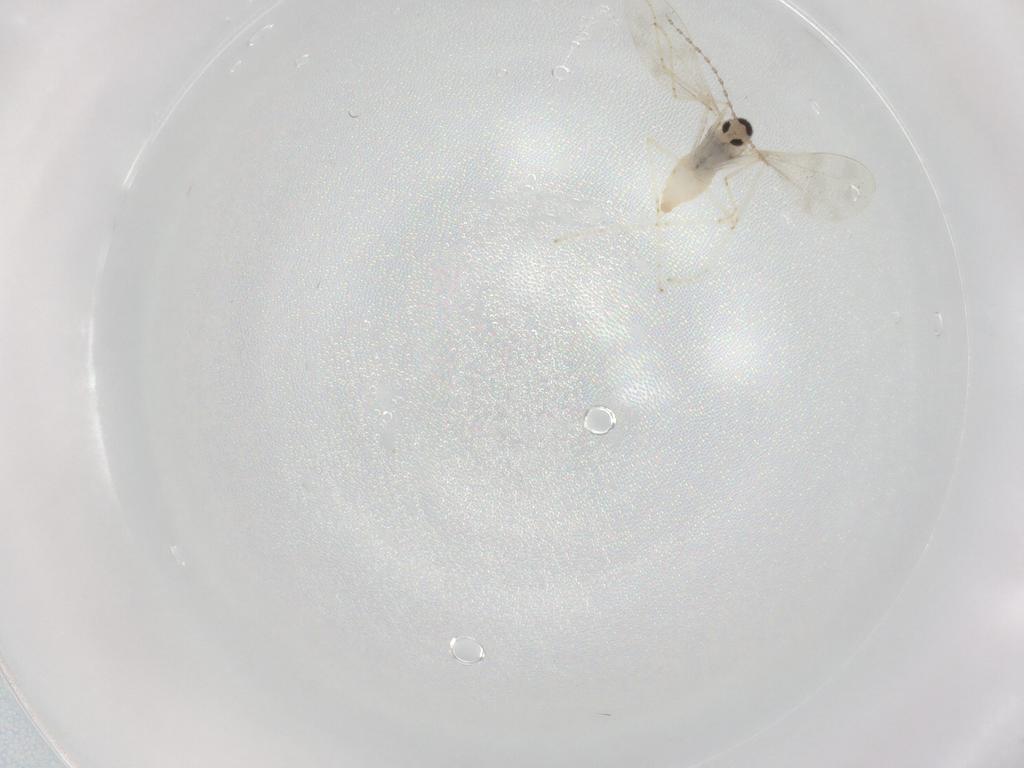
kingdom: Animalia
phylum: Arthropoda
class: Insecta
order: Diptera
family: Cecidomyiidae
